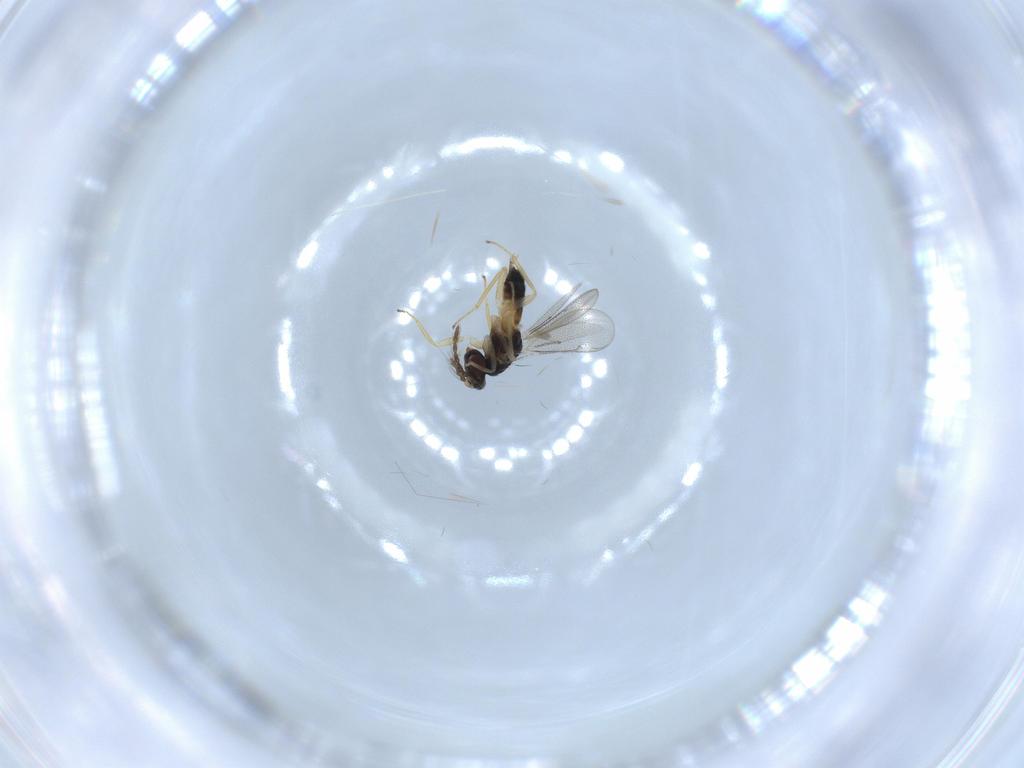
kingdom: Animalia
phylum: Arthropoda
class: Insecta
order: Hymenoptera
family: Eulophidae
